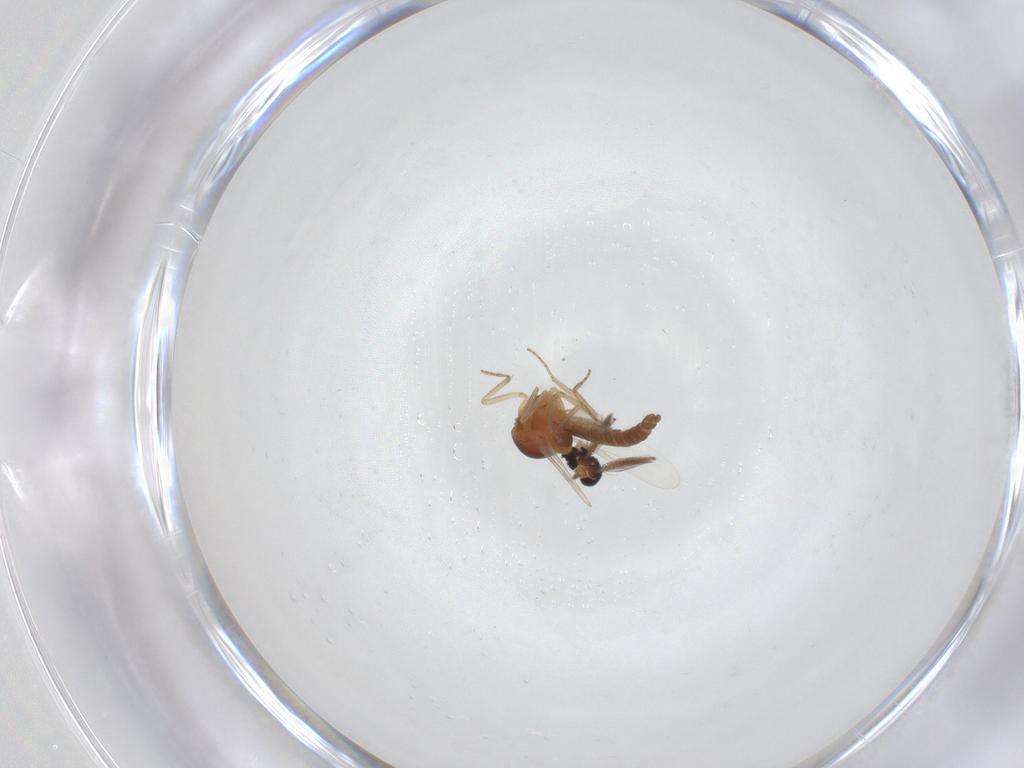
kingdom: Animalia
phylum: Arthropoda
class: Insecta
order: Diptera
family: Ceratopogonidae
